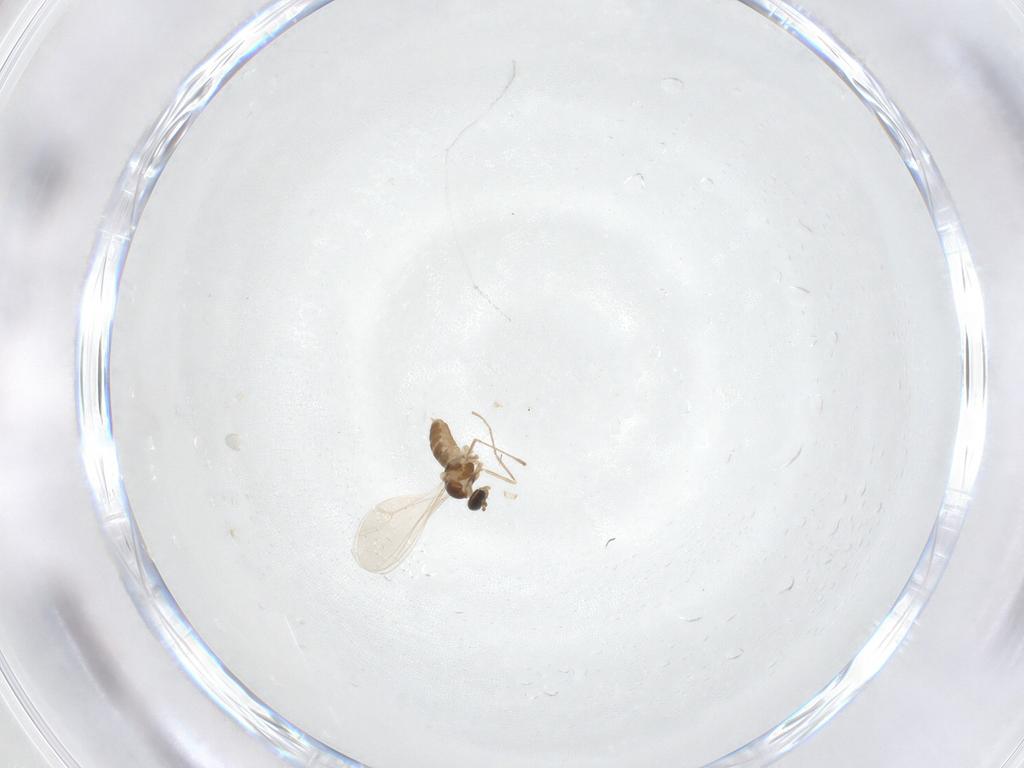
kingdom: Animalia
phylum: Arthropoda
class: Insecta
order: Diptera
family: Cecidomyiidae
